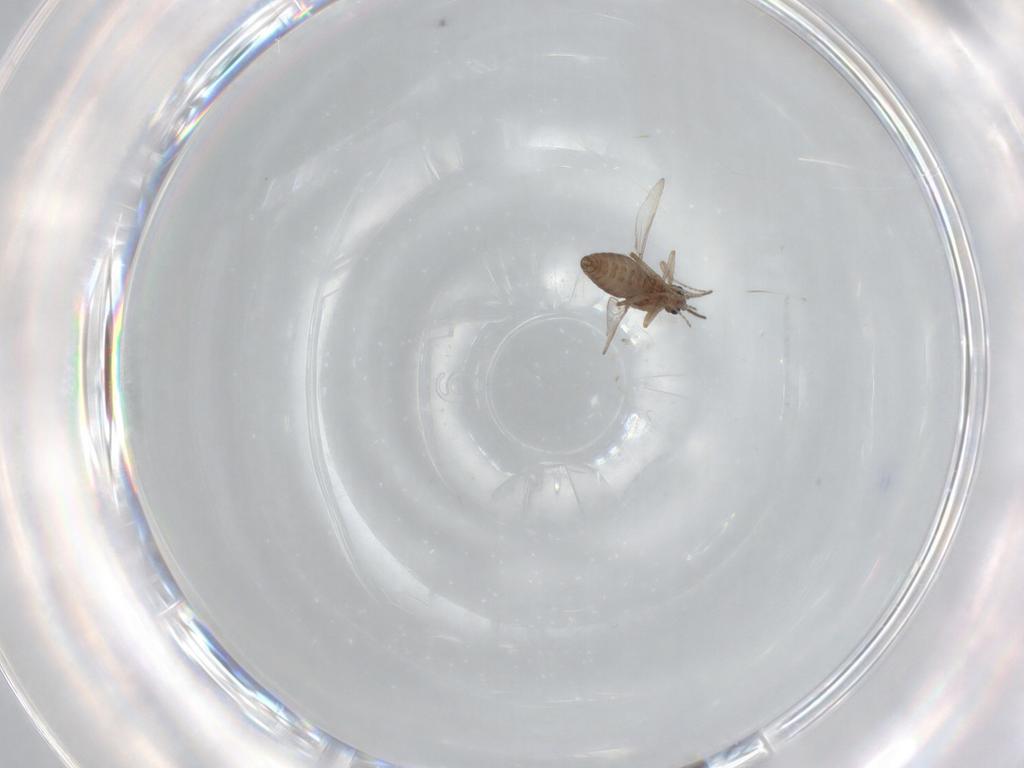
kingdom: Animalia
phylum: Arthropoda
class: Insecta
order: Diptera
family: Ceratopogonidae
